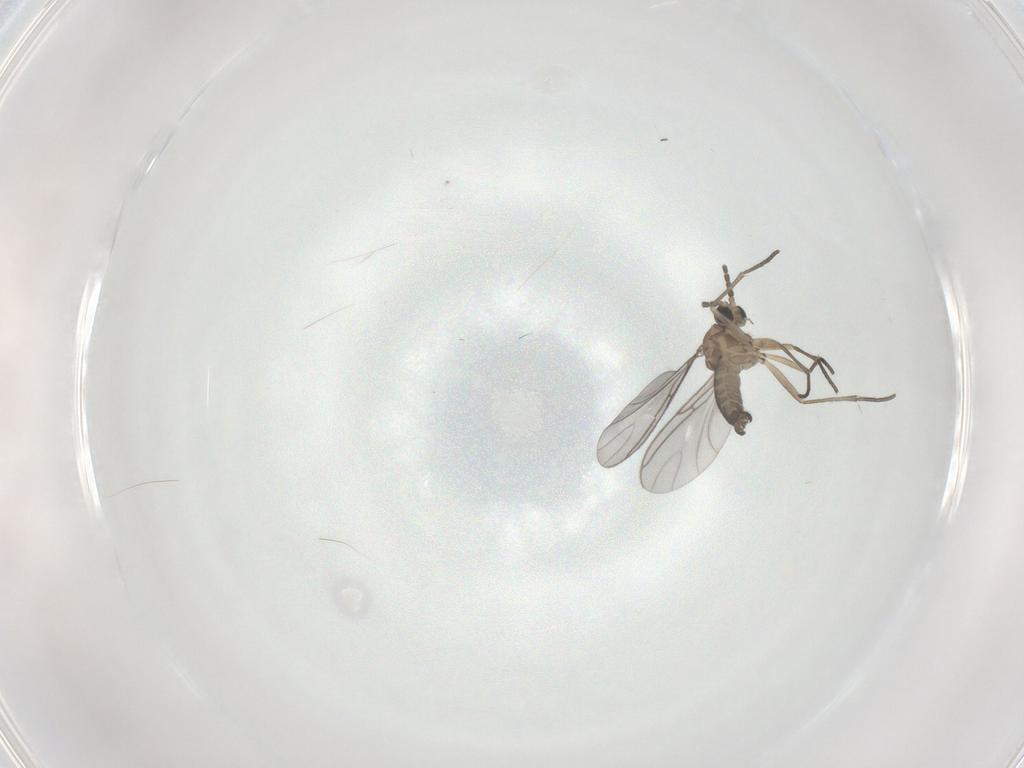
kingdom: Animalia
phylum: Arthropoda
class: Insecta
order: Diptera
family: Sciaridae
